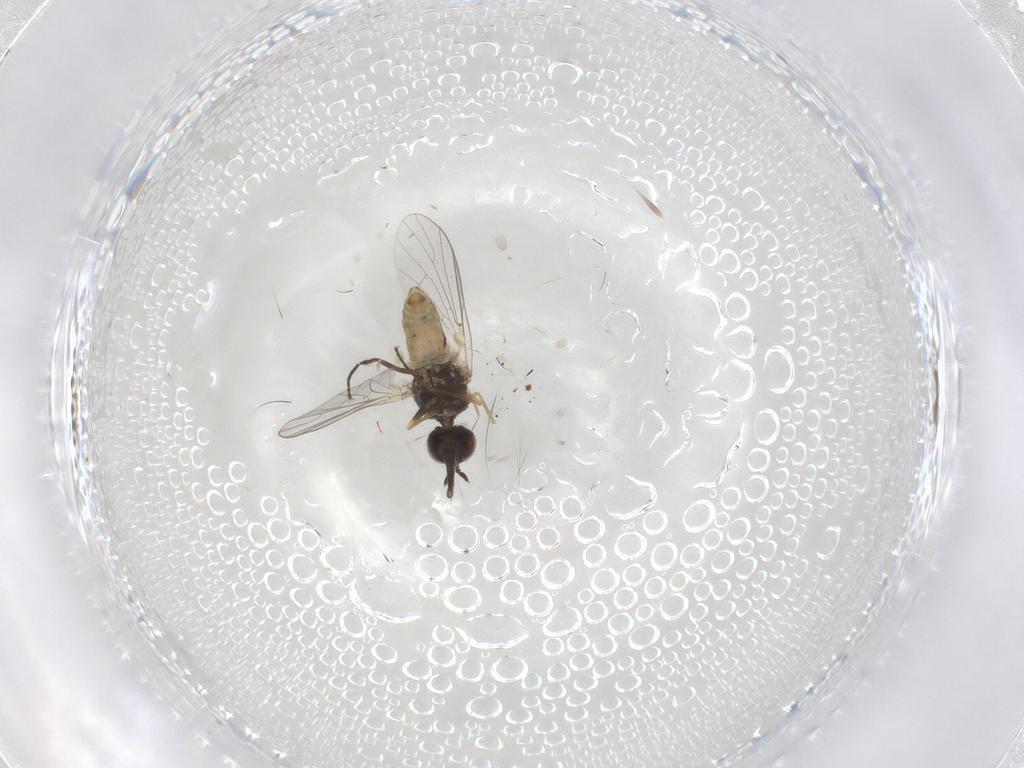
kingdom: Animalia
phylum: Arthropoda
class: Insecta
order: Diptera
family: Bombyliidae
